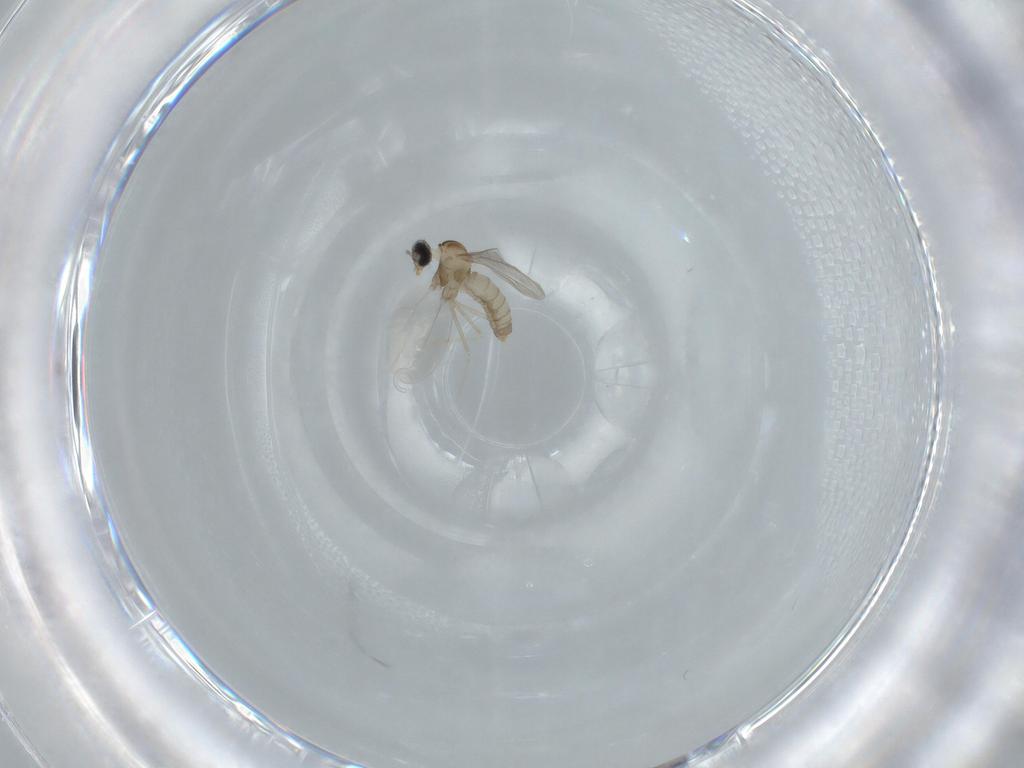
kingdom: Animalia
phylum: Arthropoda
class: Insecta
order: Diptera
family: Cecidomyiidae
